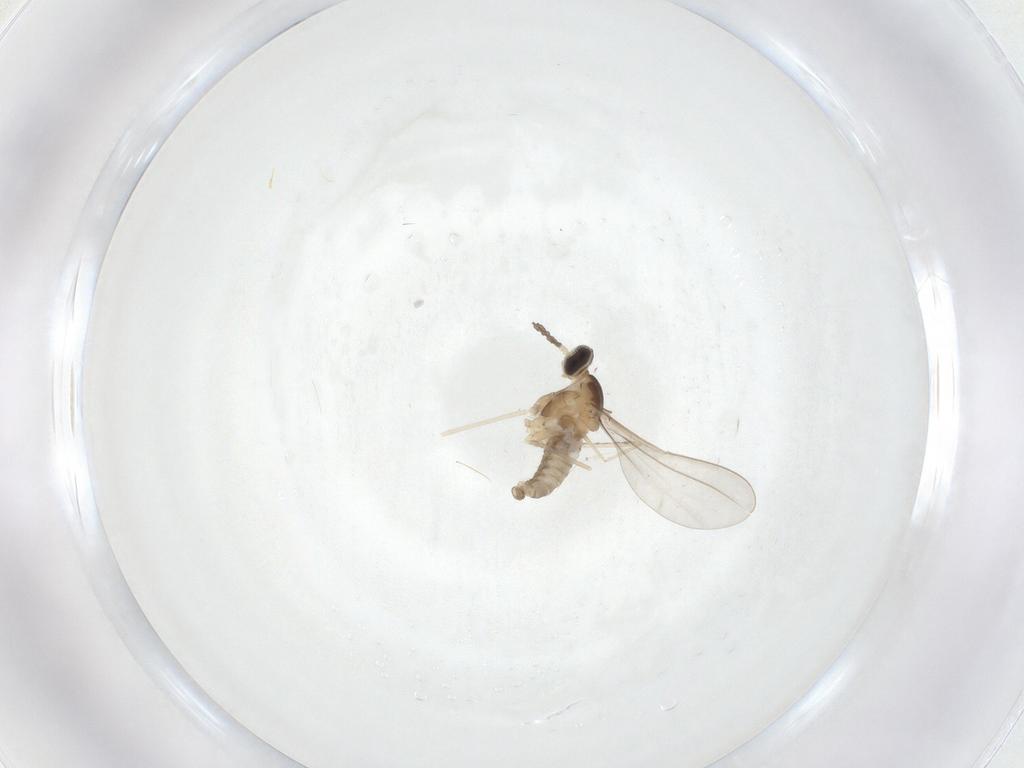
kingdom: Animalia
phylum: Arthropoda
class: Insecta
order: Diptera
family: Cecidomyiidae
